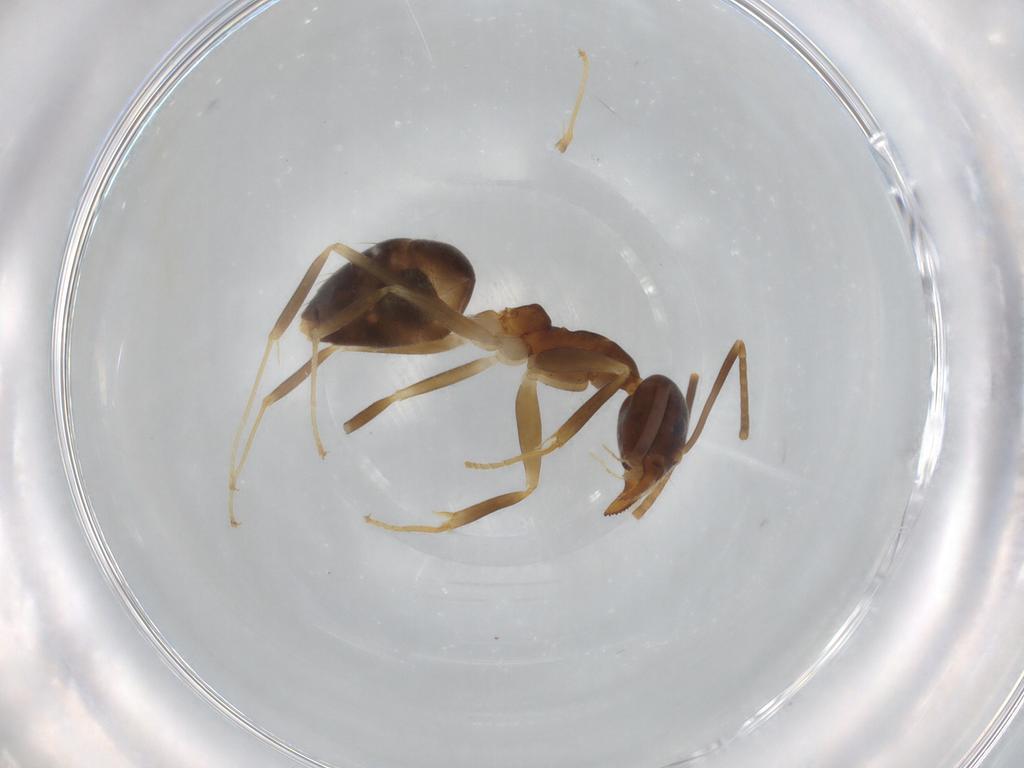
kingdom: Animalia
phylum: Arthropoda
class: Insecta
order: Hymenoptera
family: Formicidae
